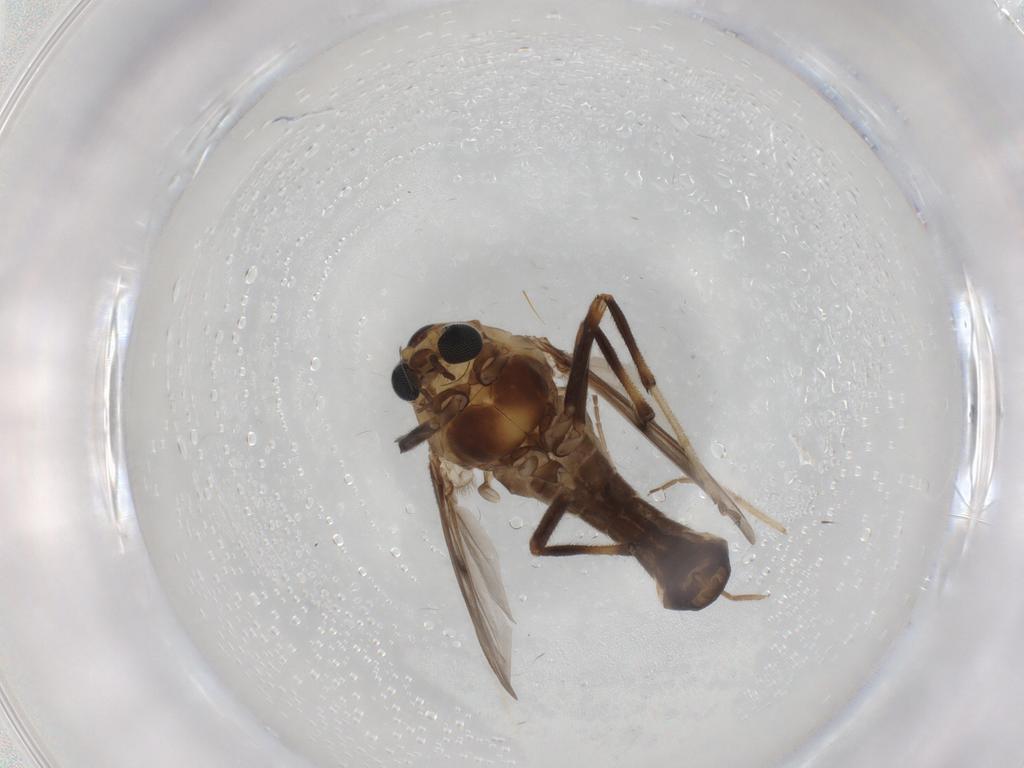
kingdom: Animalia
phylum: Arthropoda
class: Insecta
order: Diptera
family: Chironomidae
